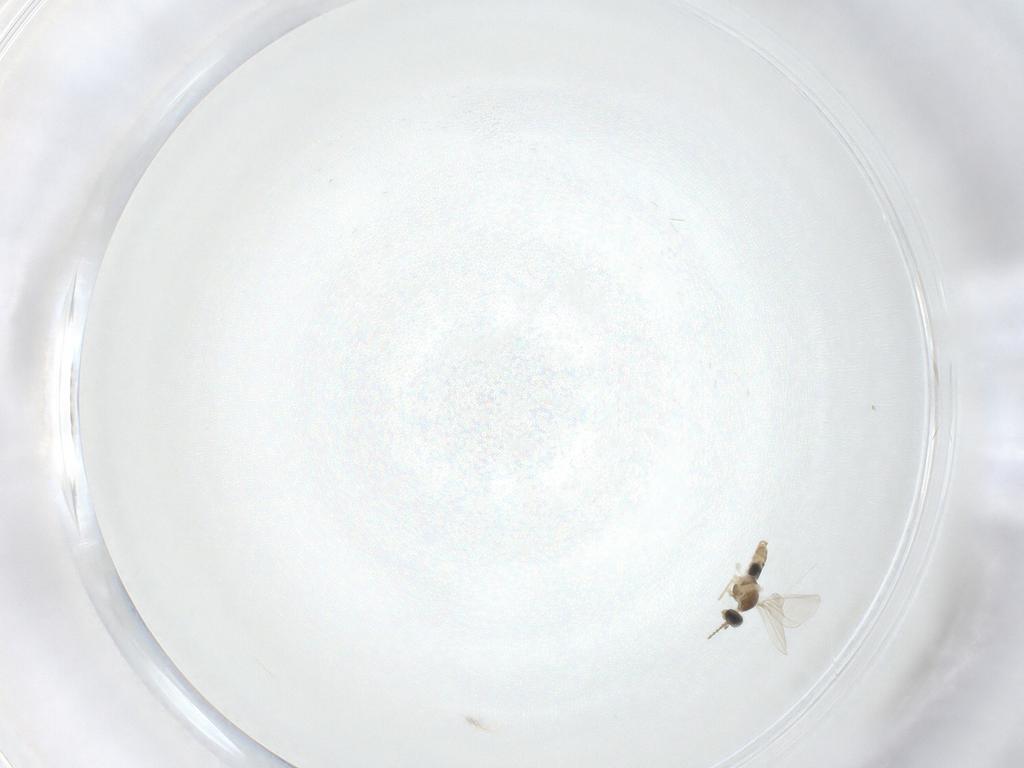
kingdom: Animalia
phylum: Arthropoda
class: Insecta
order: Diptera
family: Cecidomyiidae
